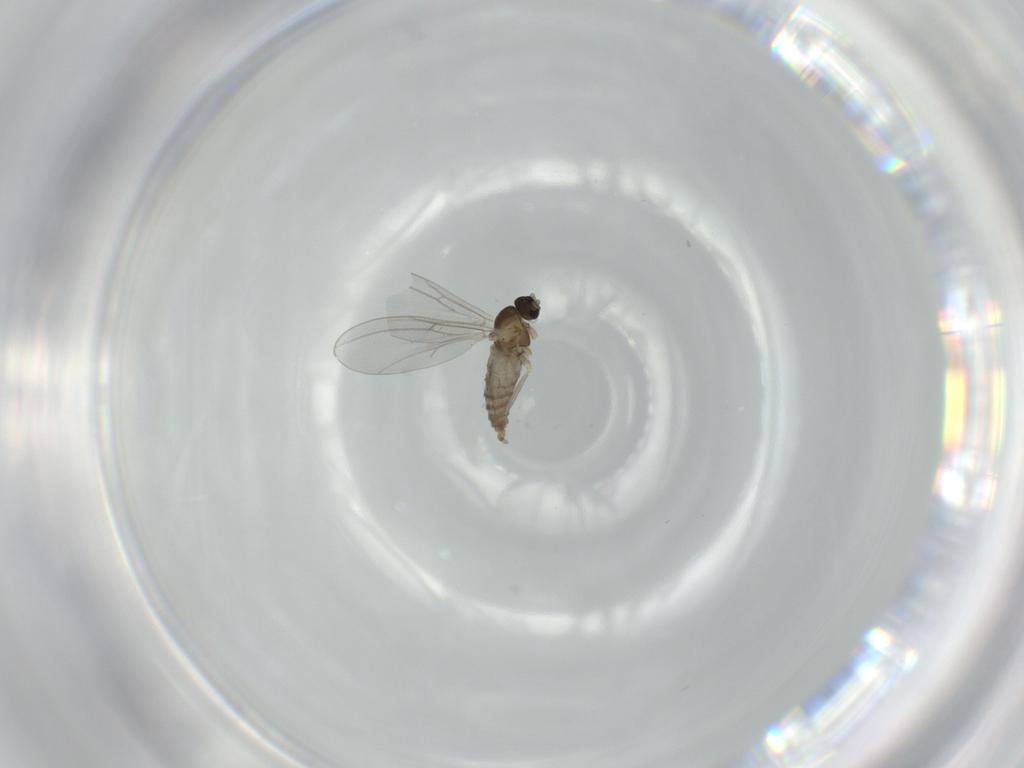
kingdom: Animalia
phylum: Arthropoda
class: Insecta
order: Diptera
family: Cecidomyiidae
